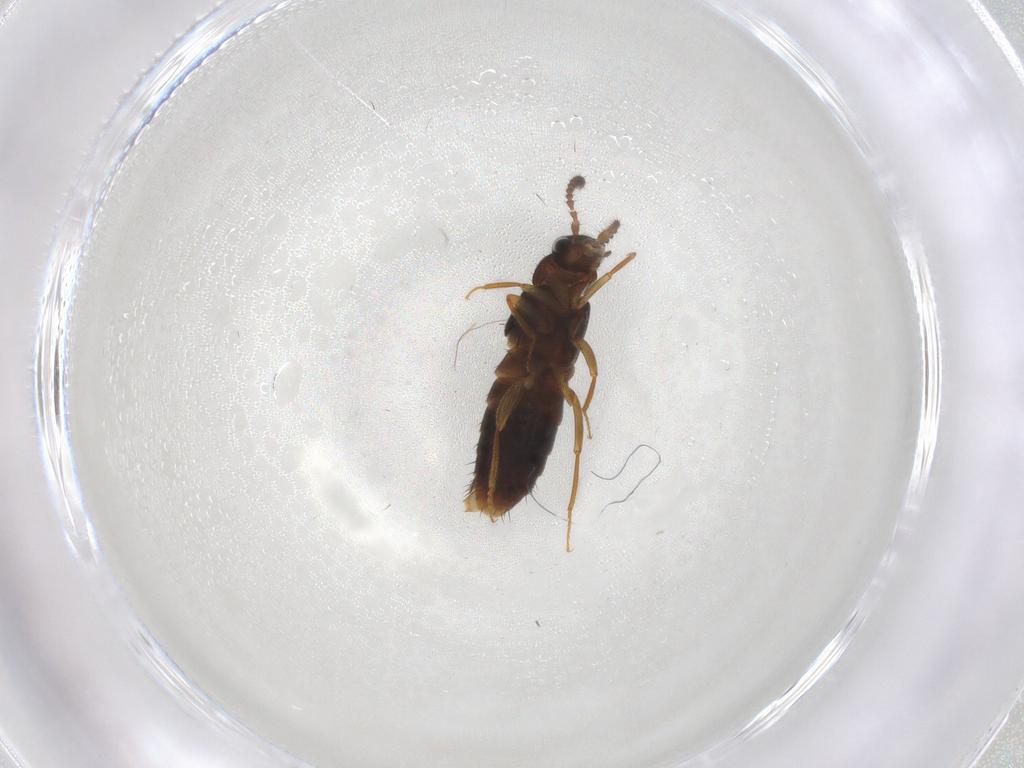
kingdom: Animalia
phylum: Arthropoda
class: Insecta
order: Coleoptera
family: Staphylinidae
